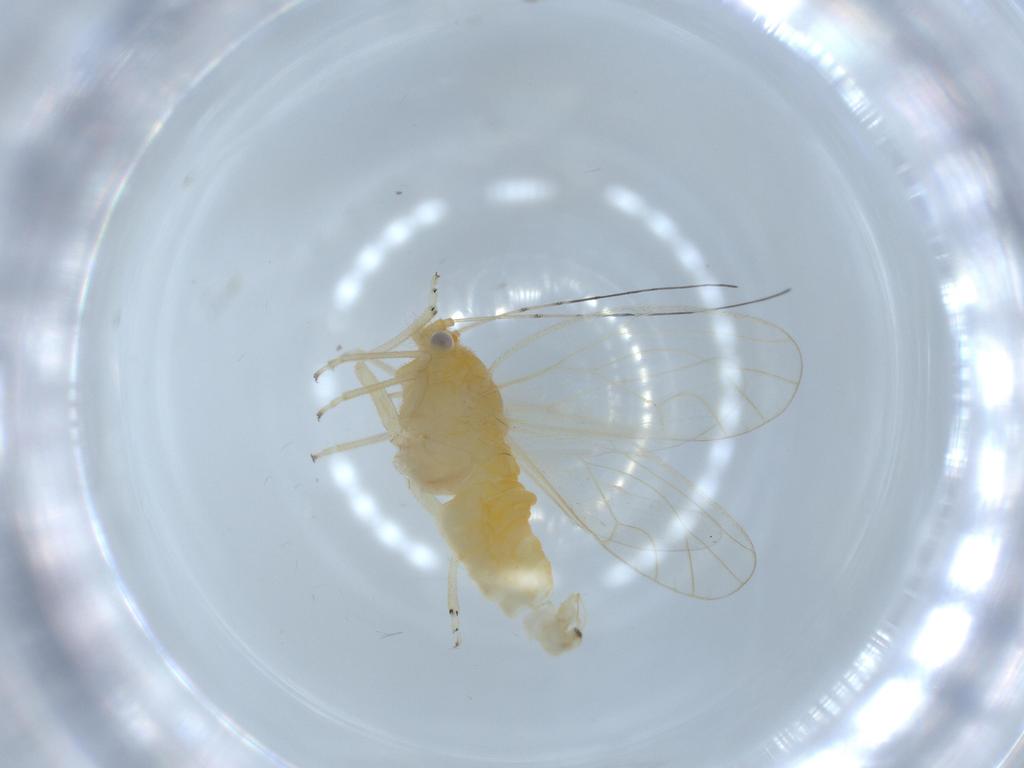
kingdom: Animalia
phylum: Arthropoda
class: Insecta
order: Hemiptera
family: Psyllidae
